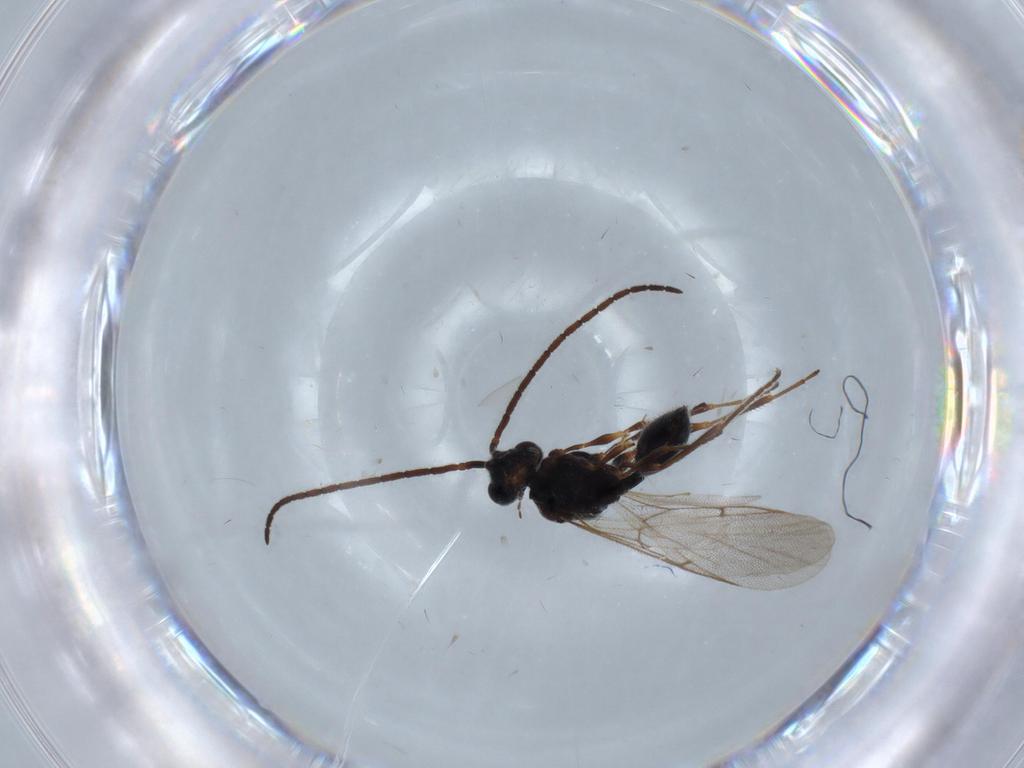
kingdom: Animalia
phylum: Arthropoda
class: Insecta
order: Hymenoptera
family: Braconidae
